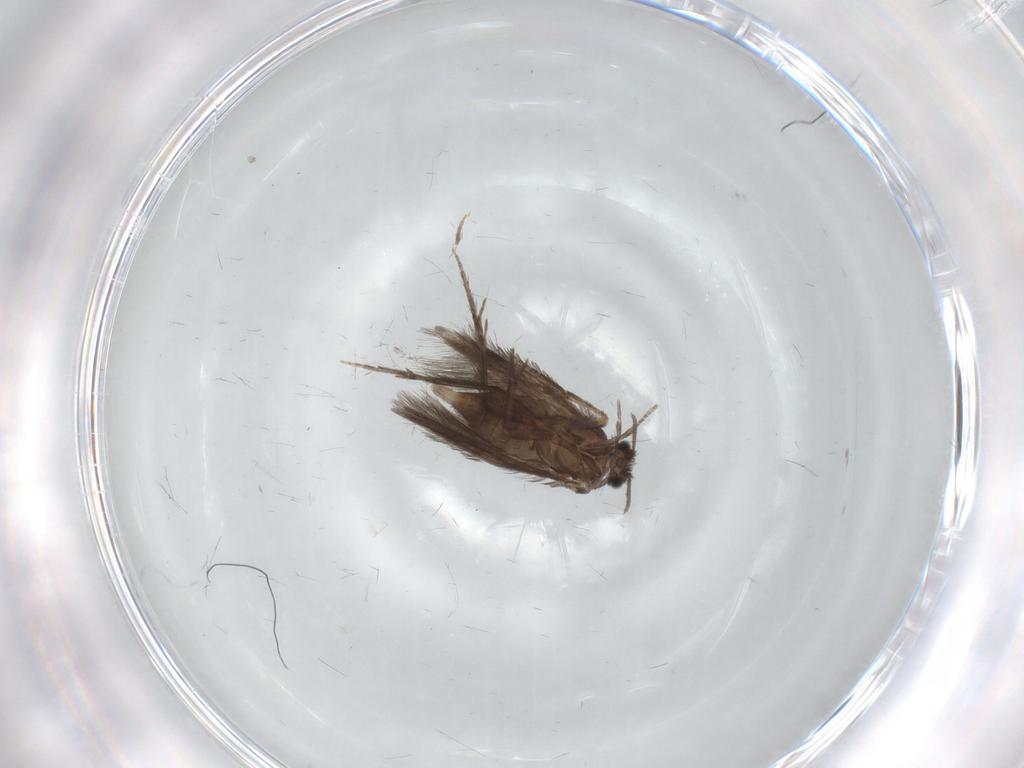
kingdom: Animalia
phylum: Arthropoda
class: Insecta
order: Trichoptera
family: Hydroptilidae
